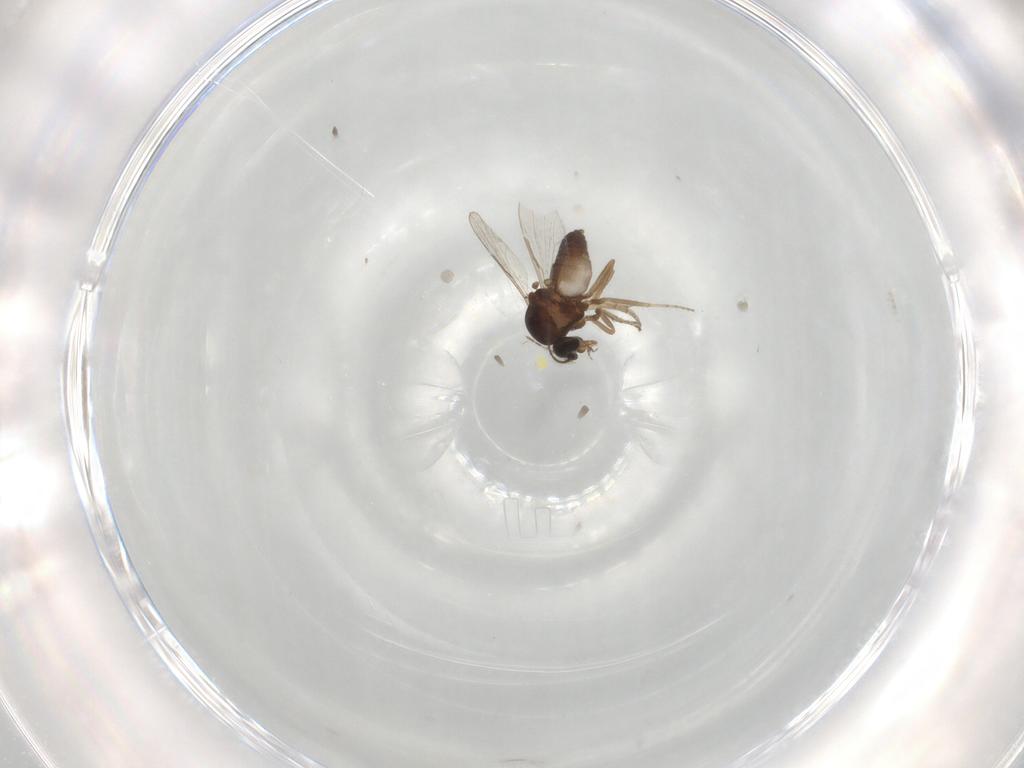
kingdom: Animalia
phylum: Arthropoda
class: Insecta
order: Diptera
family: Ceratopogonidae
